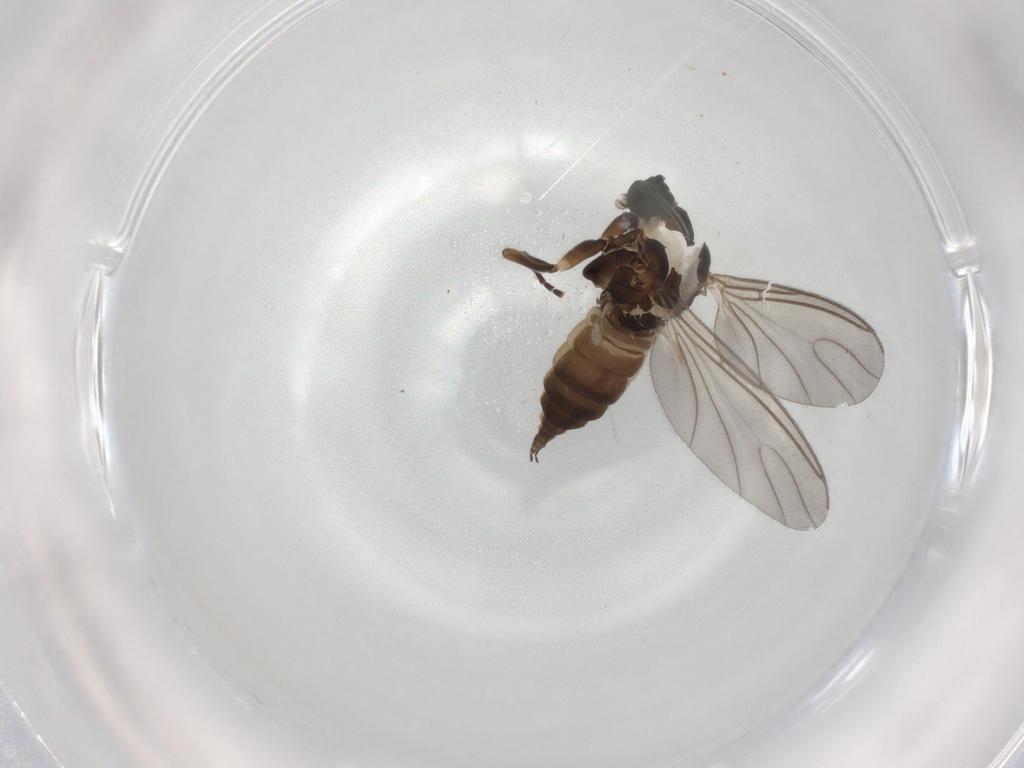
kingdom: Animalia
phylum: Arthropoda
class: Insecta
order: Diptera
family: Sciaridae
